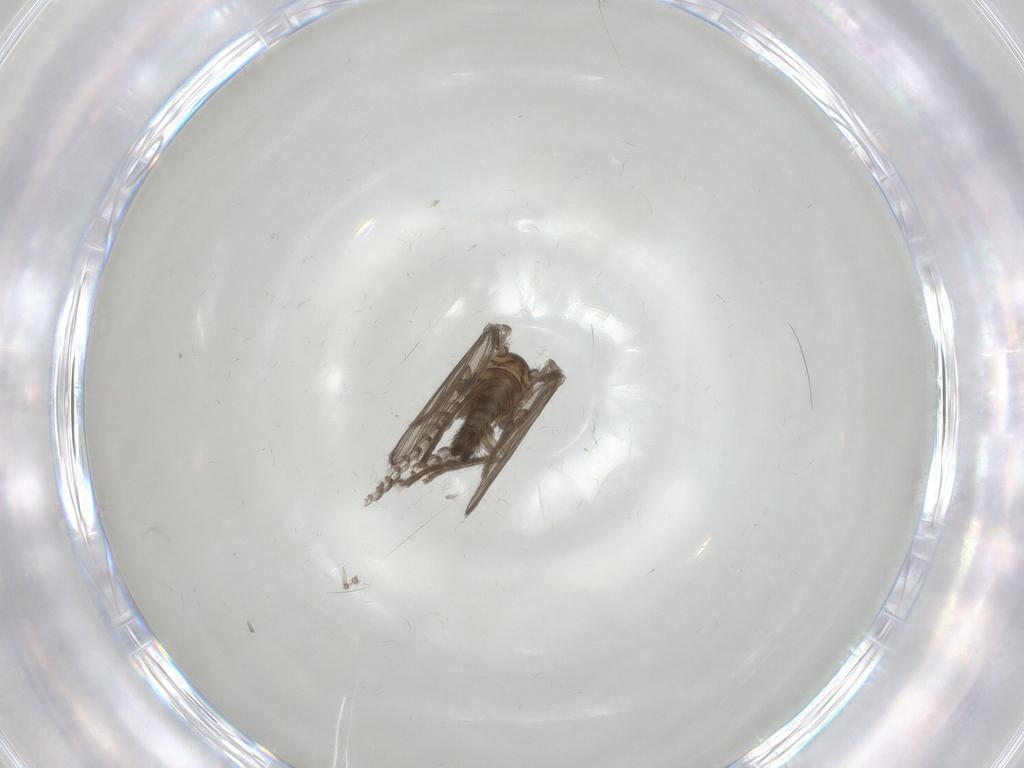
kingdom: Animalia
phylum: Arthropoda
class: Insecta
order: Diptera
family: Psychodidae
